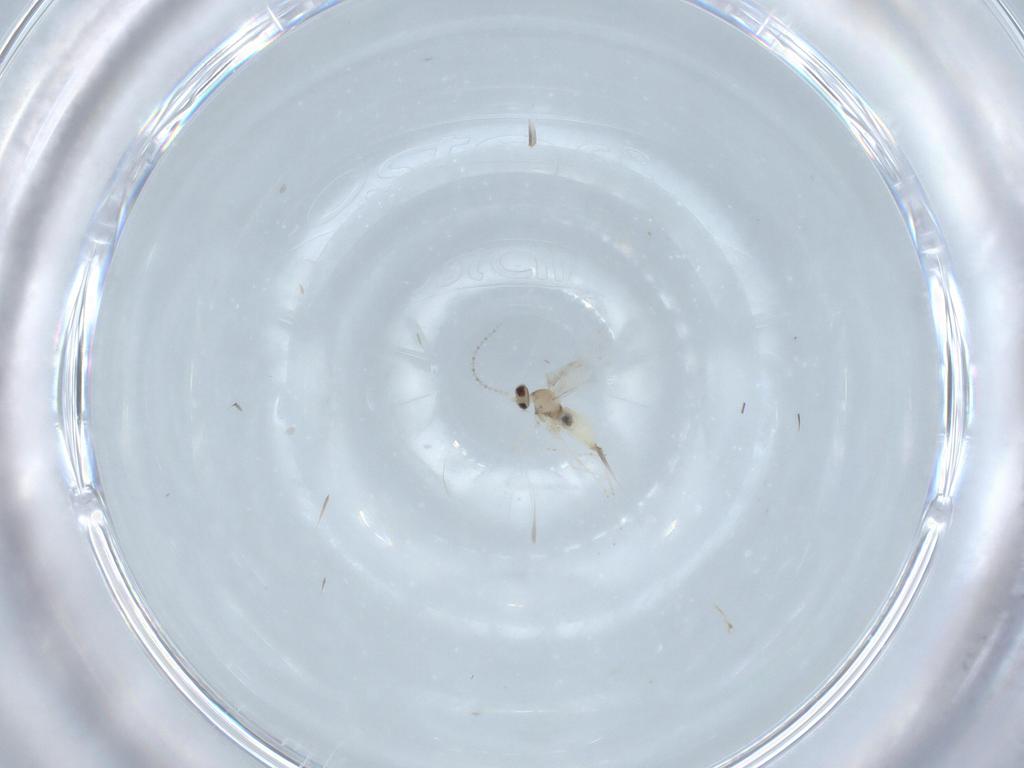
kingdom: Animalia
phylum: Arthropoda
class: Insecta
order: Diptera
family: Cecidomyiidae
